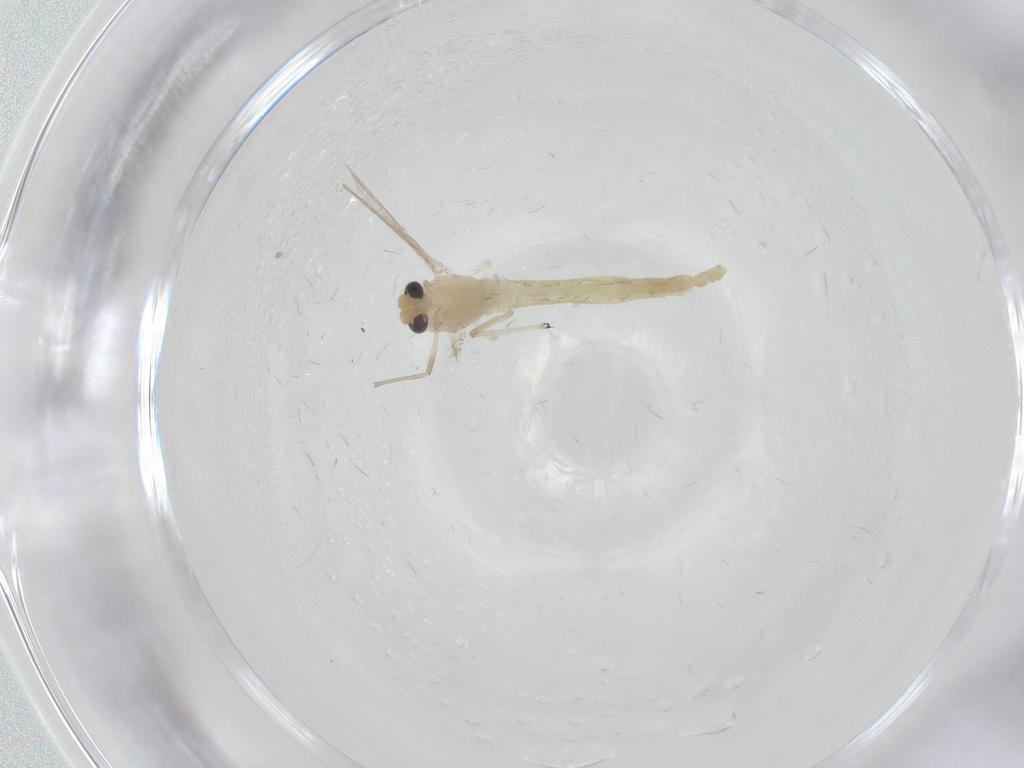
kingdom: Animalia
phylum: Arthropoda
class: Insecta
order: Diptera
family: Chironomidae
